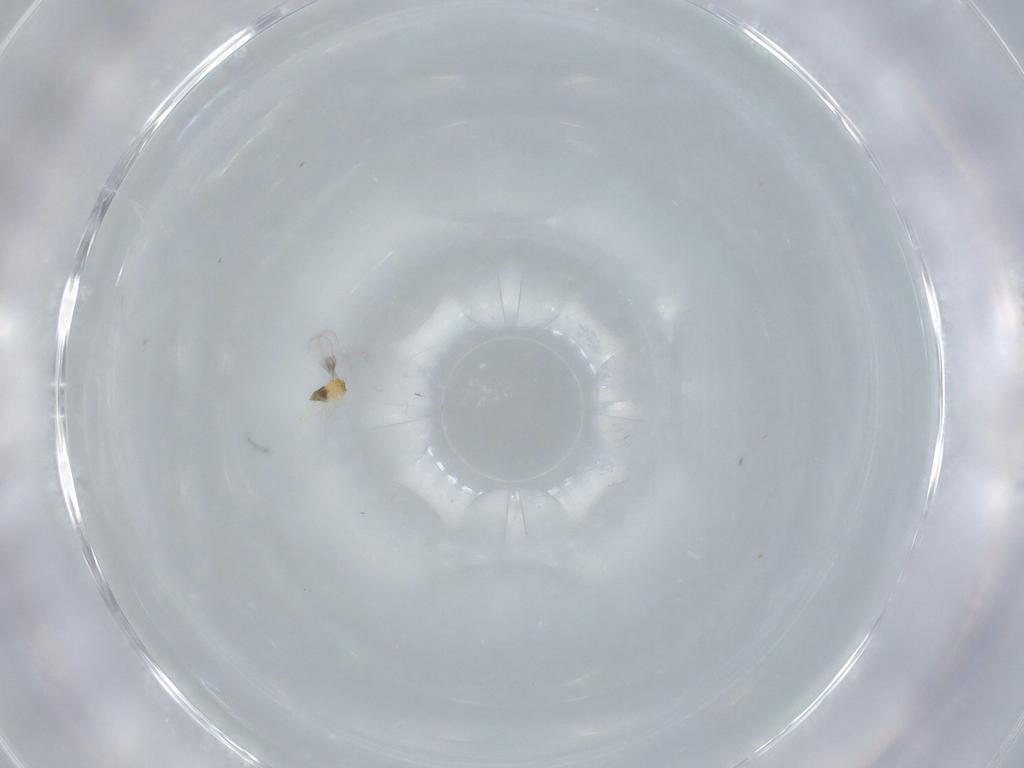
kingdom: Animalia
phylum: Arthropoda
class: Insecta
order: Hymenoptera
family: Trichogrammatidae
